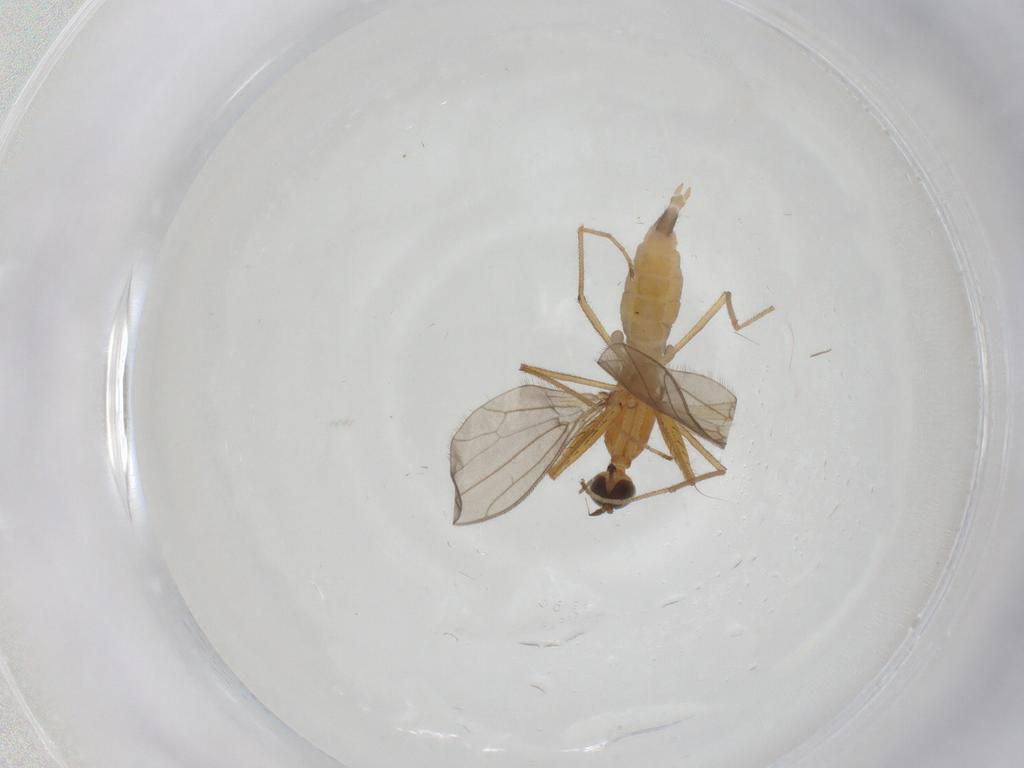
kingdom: Animalia
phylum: Arthropoda
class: Insecta
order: Diptera
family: Empididae
